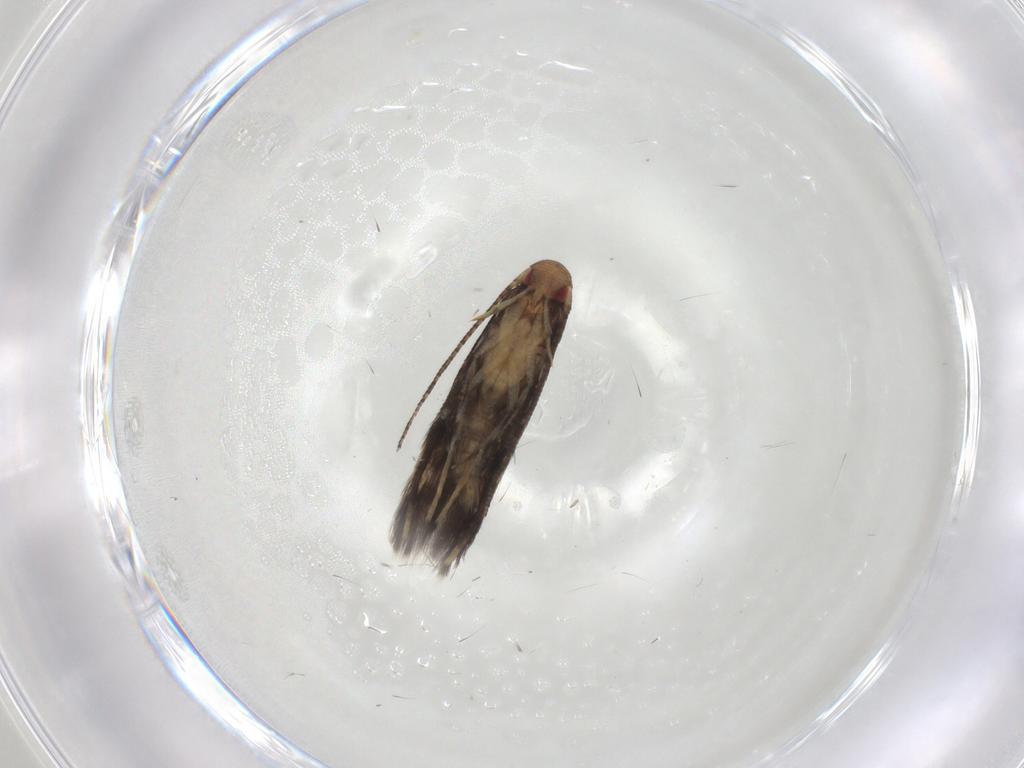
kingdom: Animalia
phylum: Arthropoda
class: Insecta
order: Lepidoptera
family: Momphidae
